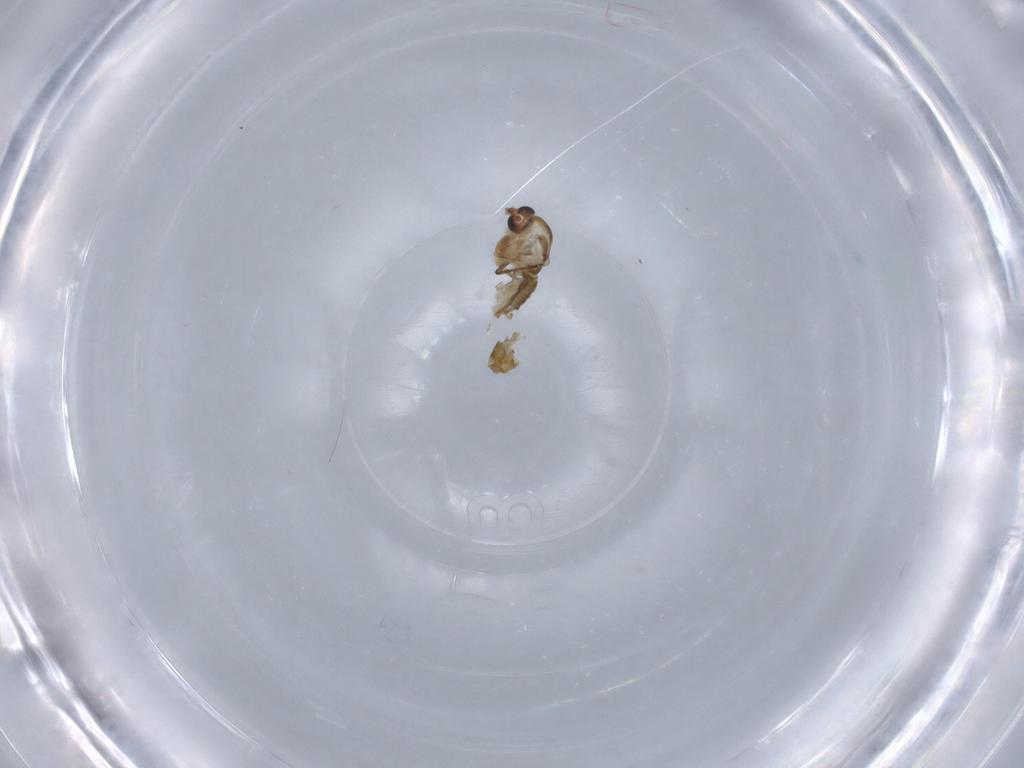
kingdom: Animalia
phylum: Arthropoda
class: Insecta
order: Diptera
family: Chironomidae
